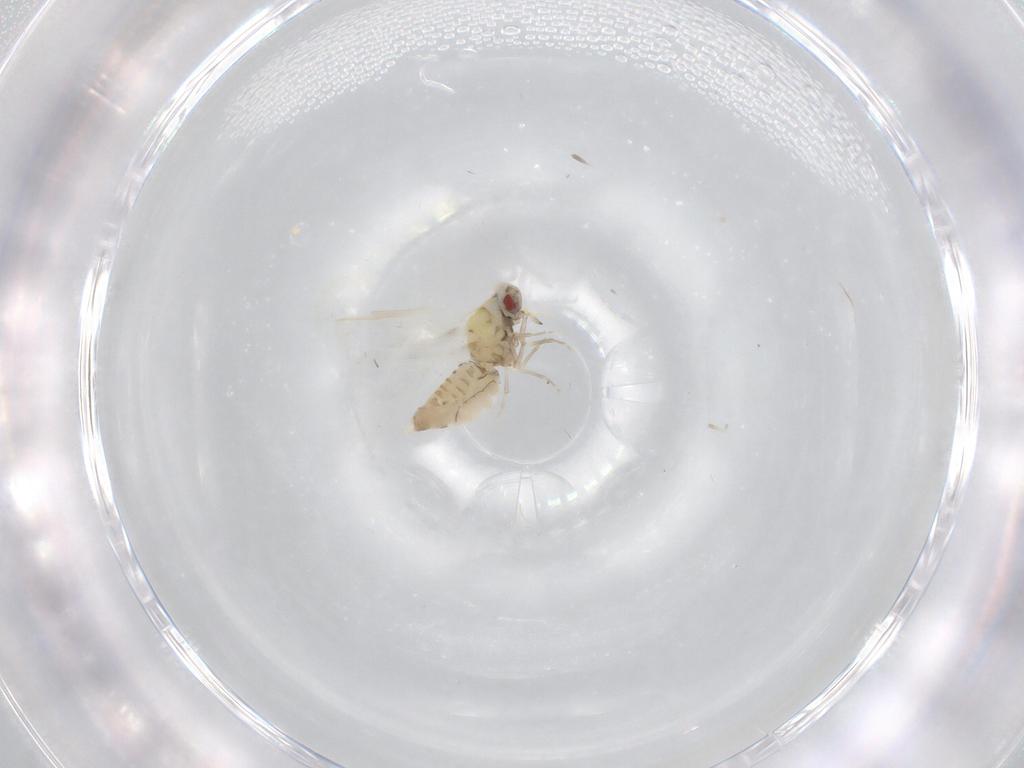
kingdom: Animalia
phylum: Arthropoda
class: Insecta
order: Hemiptera
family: Aleyrodidae
